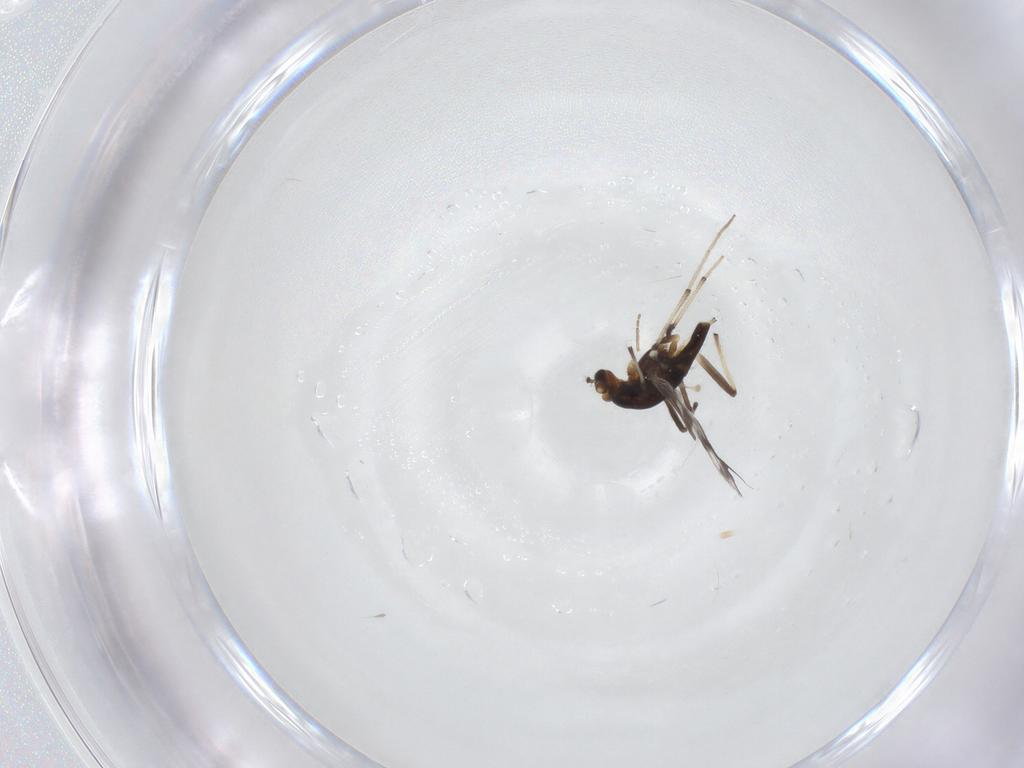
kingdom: Animalia
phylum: Arthropoda
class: Insecta
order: Diptera
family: Chironomidae
